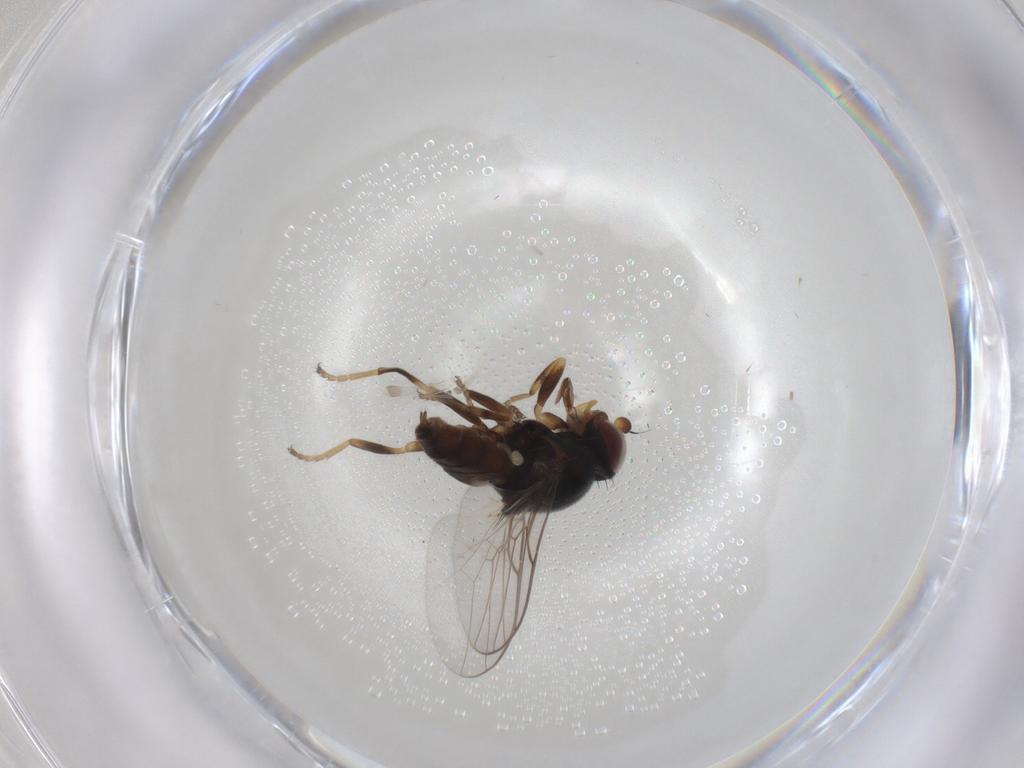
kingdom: Animalia
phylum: Arthropoda
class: Insecta
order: Diptera
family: Chloropidae
